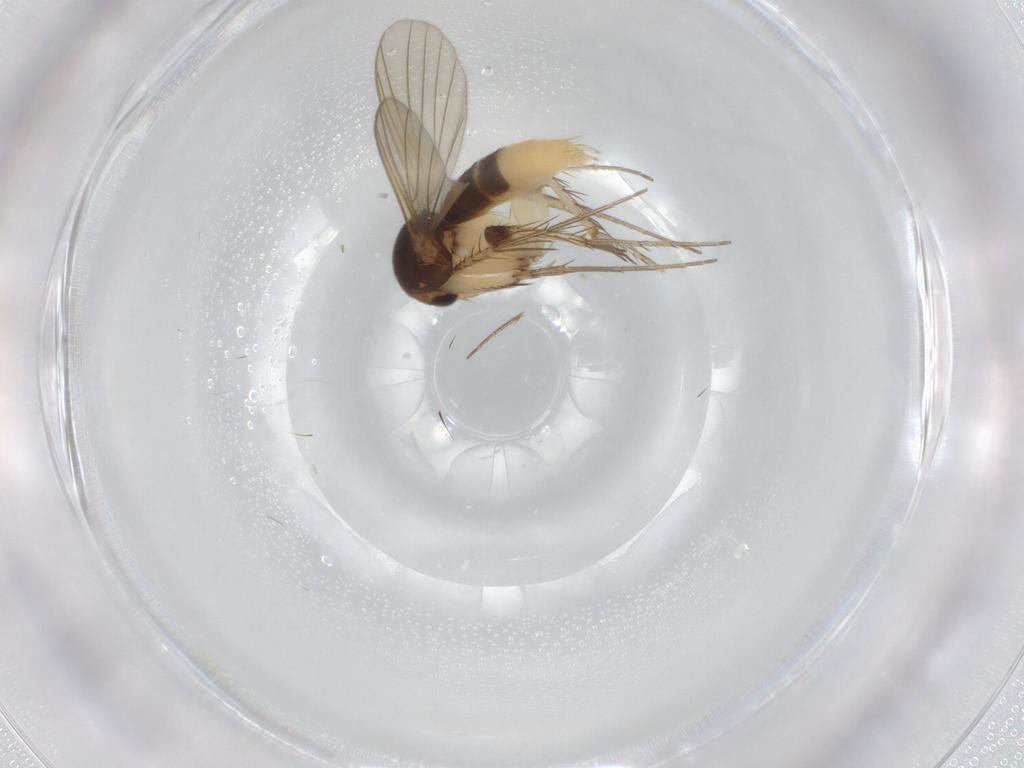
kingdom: Animalia
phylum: Arthropoda
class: Insecta
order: Diptera
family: Mycetophilidae
